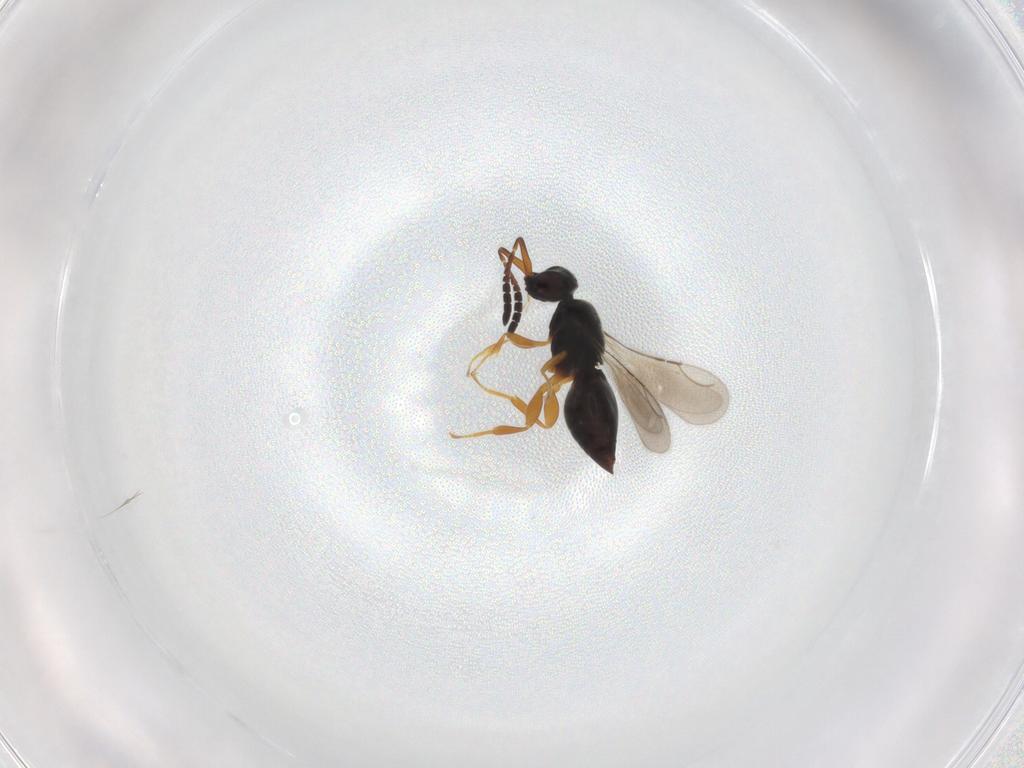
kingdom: Animalia
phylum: Arthropoda
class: Insecta
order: Hymenoptera
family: Ceraphronidae
